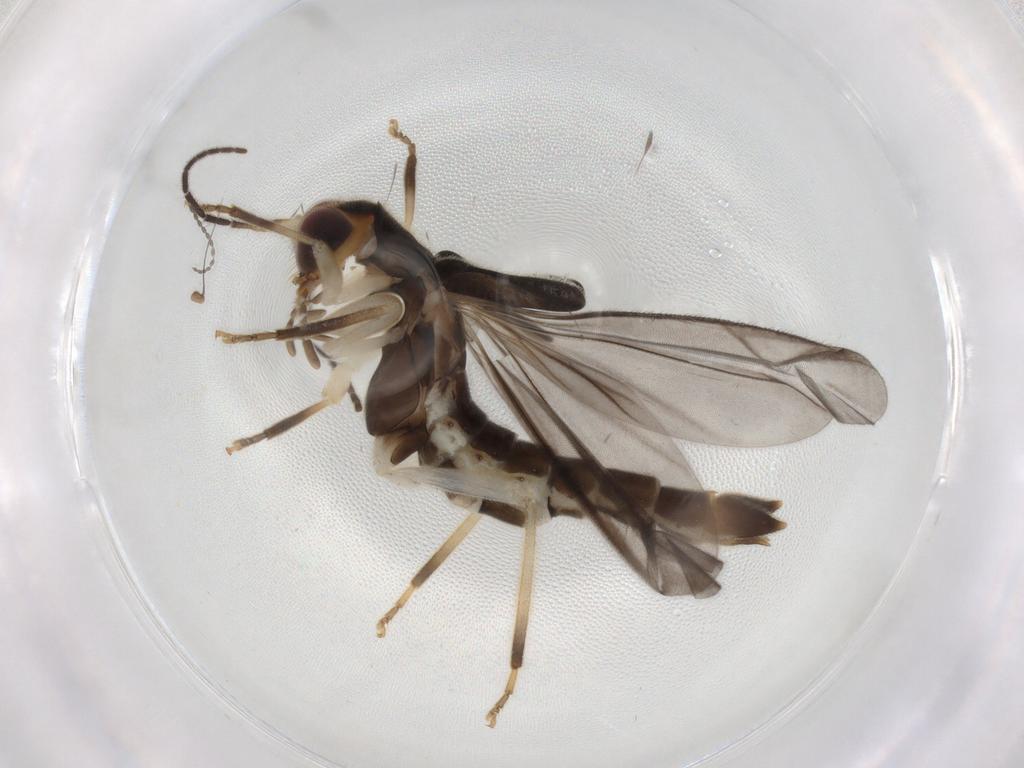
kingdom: Animalia
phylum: Arthropoda
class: Insecta
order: Coleoptera
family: Cantharidae
